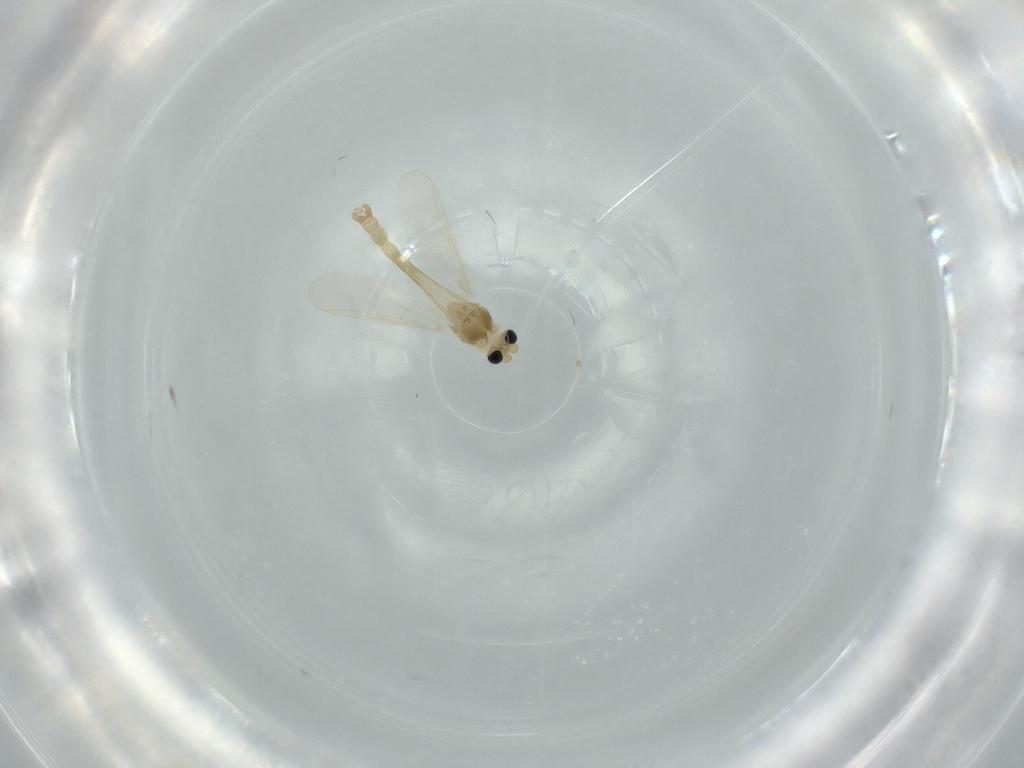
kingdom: Animalia
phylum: Arthropoda
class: Insecta
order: Diptera
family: Chironomidae
